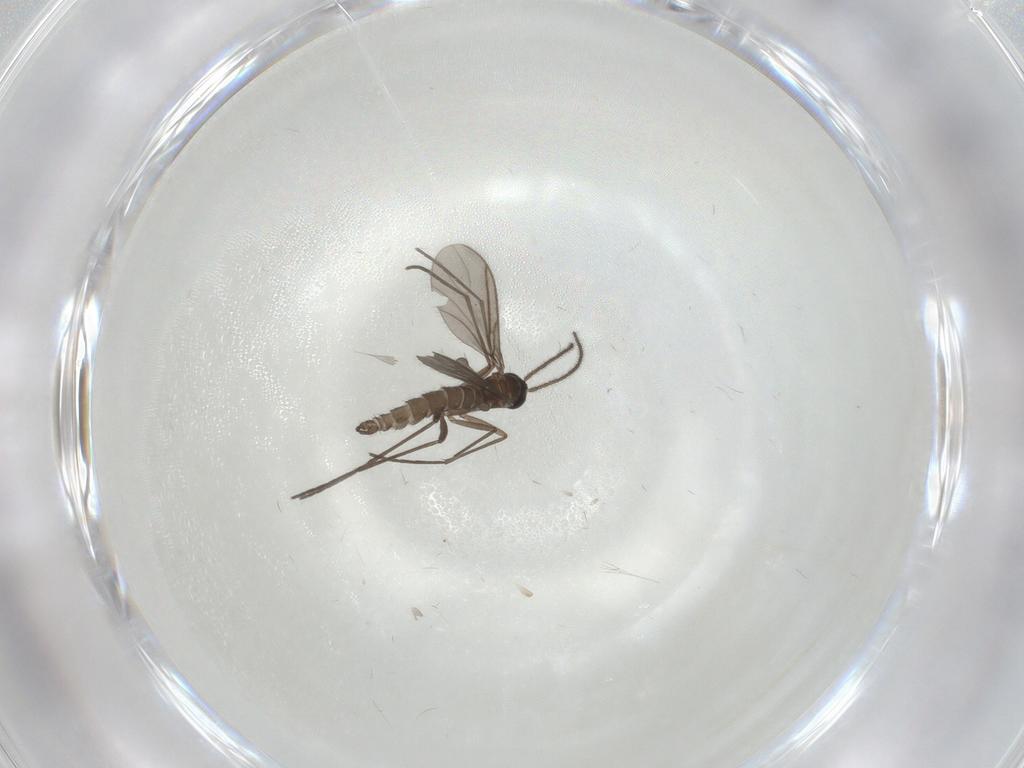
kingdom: Animalia
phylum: Arthropoda
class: Insecta
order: Diptera
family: Sciaridae
